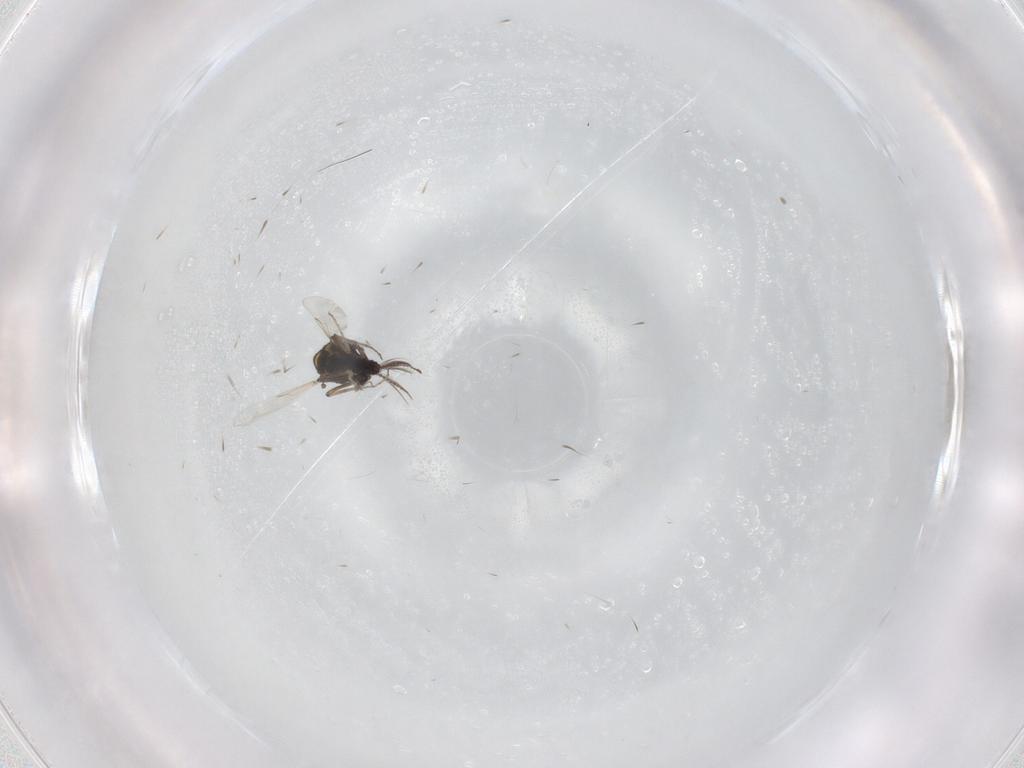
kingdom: Animalia
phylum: Arthropoda
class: Insecta
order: Diptera
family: Ceratopogonidae
